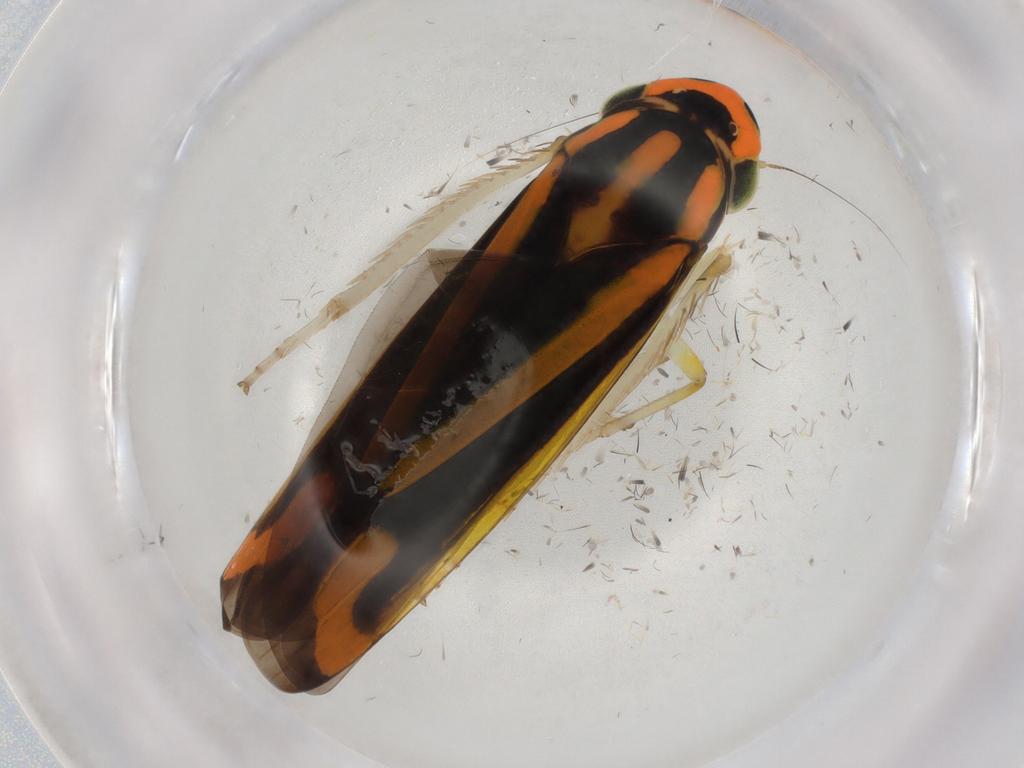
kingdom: Animalia
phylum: Arthropoda
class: Insecta
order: Hemiptera
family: Cicadellidae
